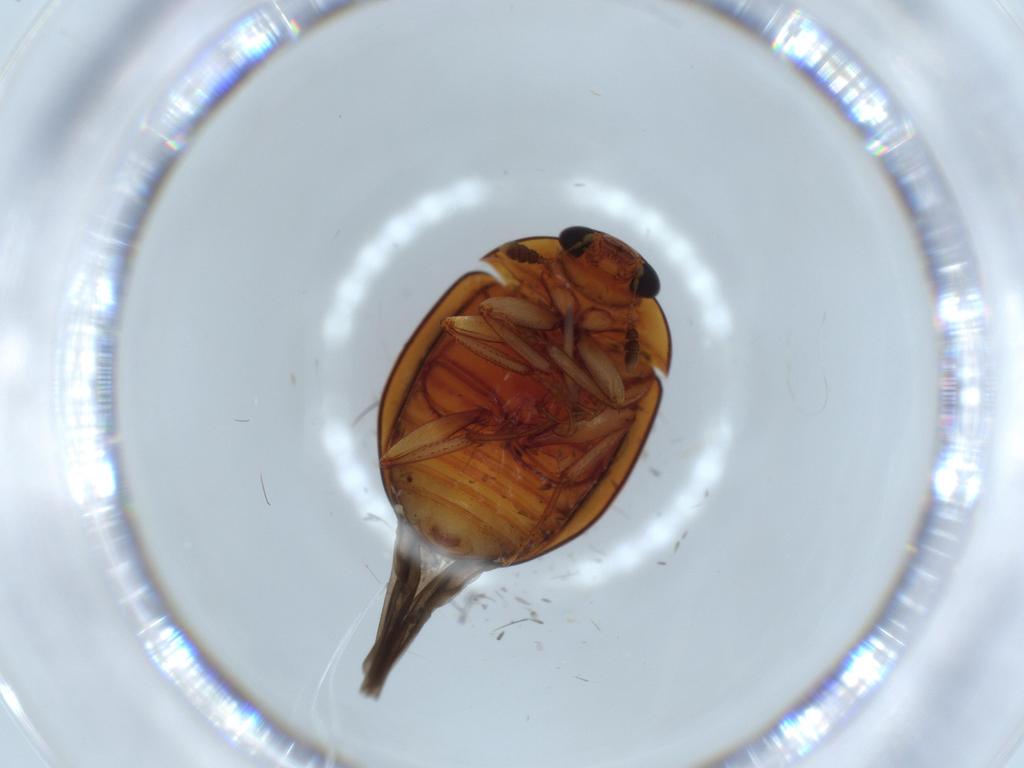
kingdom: Animalia
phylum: Arthropoda
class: Insecta
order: Coleoptera
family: Nitidulidae
